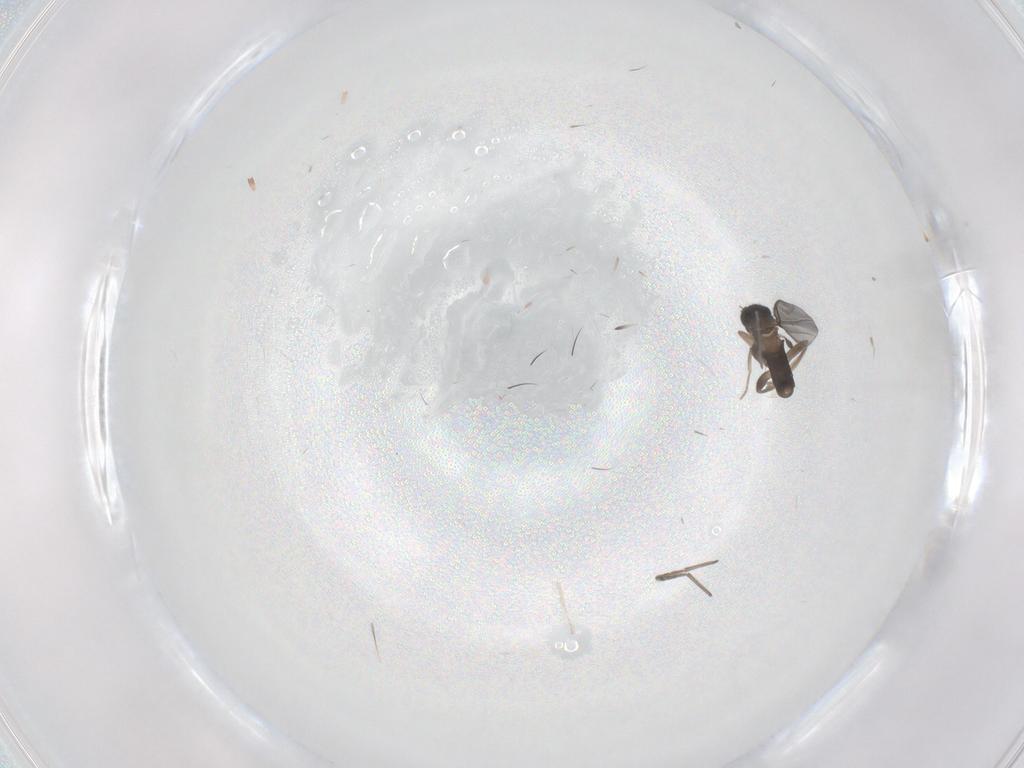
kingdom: Animalia
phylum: Arthropoda
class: Insecta
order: Diptera
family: Phoridae
